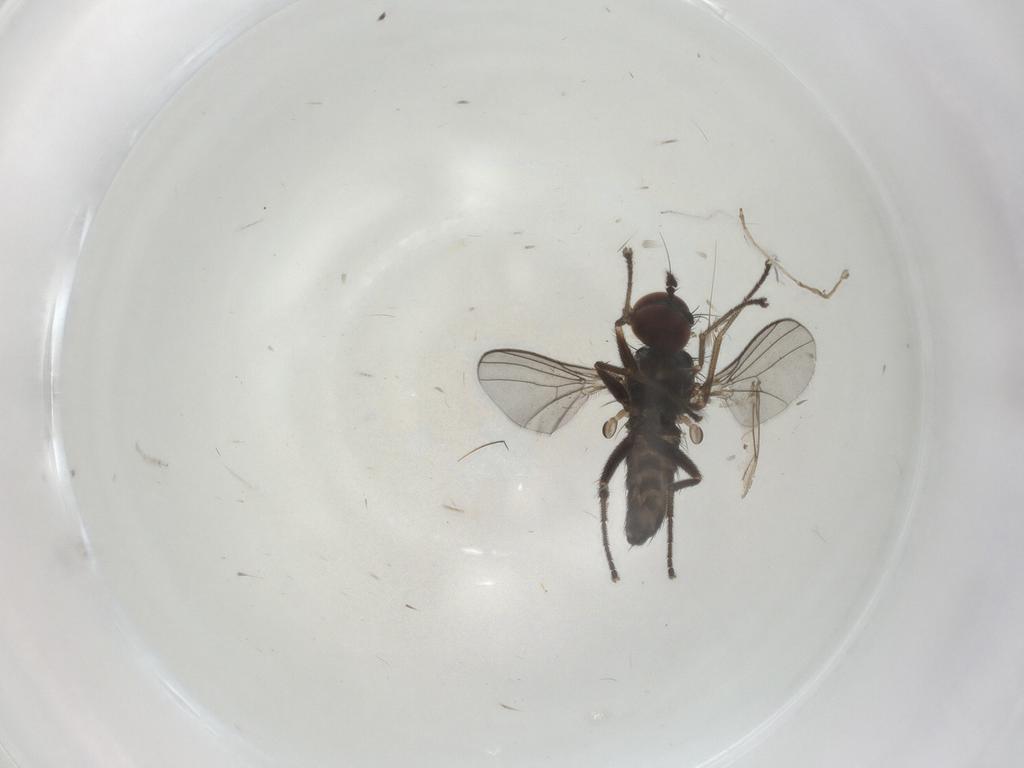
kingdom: Animalia
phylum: Arthropoda
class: Insecta
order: Diptera
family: Dolichopodidae
